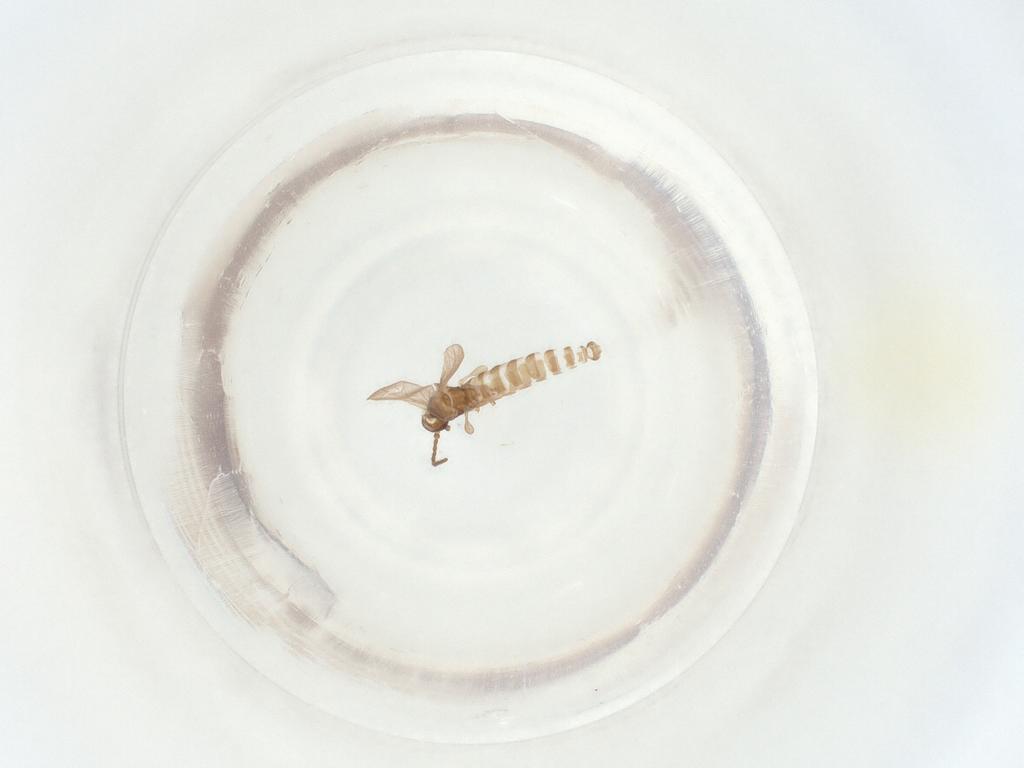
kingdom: Animalia
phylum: Arthropoda
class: Insecta
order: Diptera
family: Sciaridae
